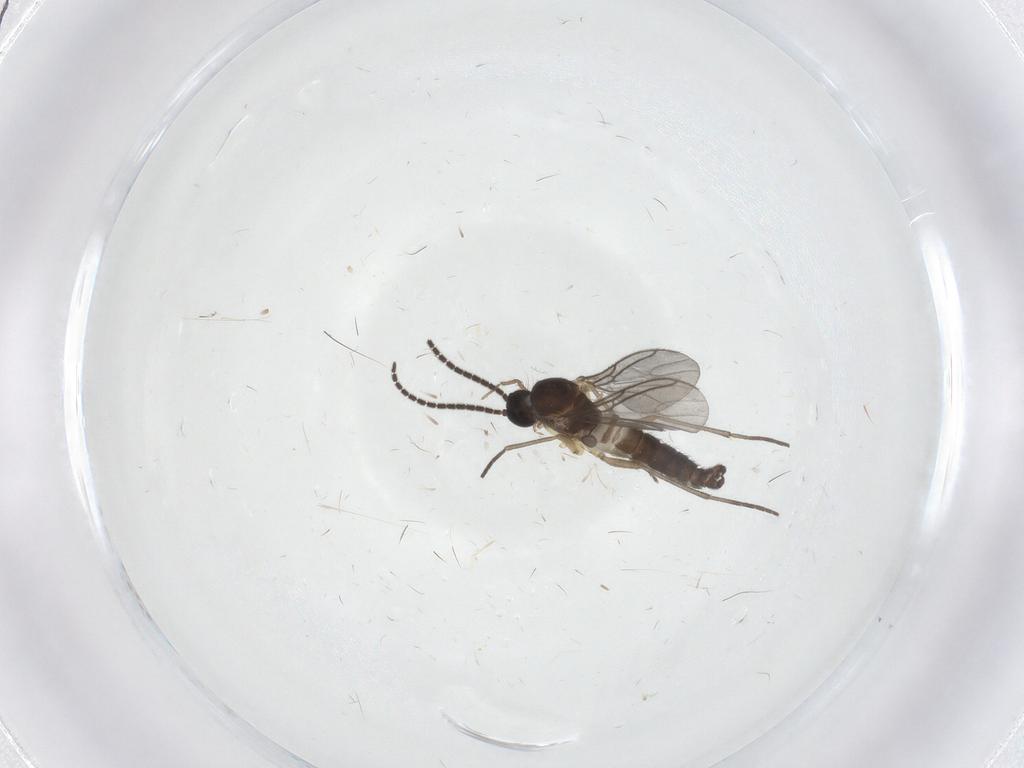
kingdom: Animalia
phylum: Arthropoda
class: Insecta
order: Diptera
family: Sciaridae
